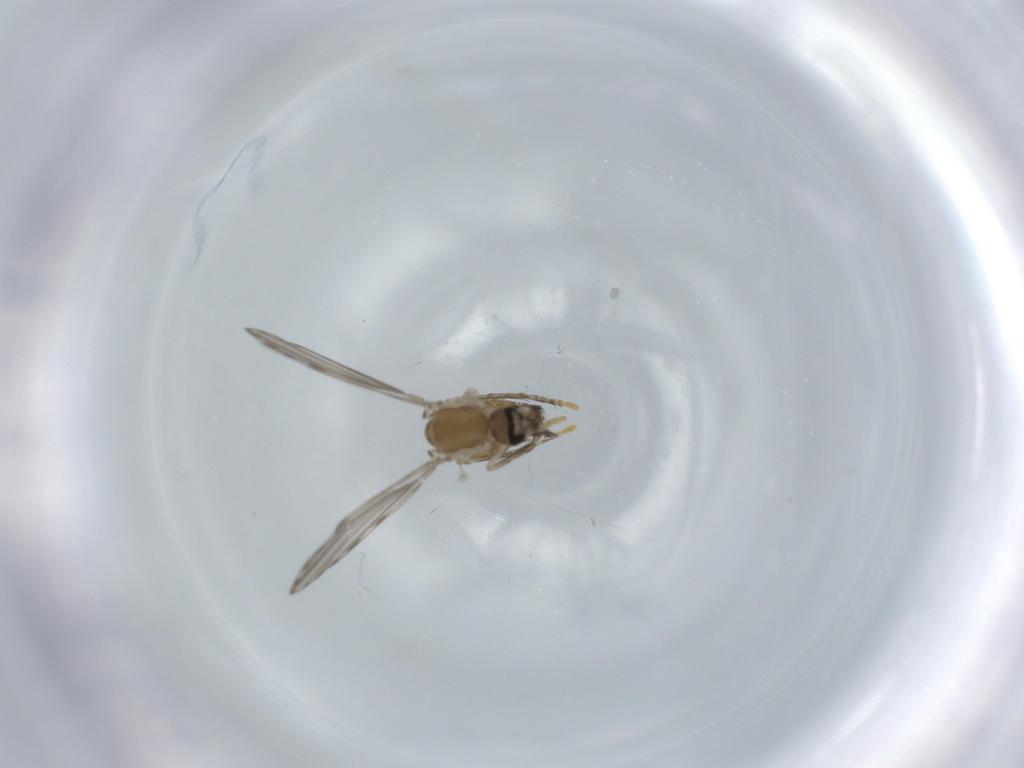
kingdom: Animalia
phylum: Arthropoda
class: Insecta
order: Diptera
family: Psychodidae
